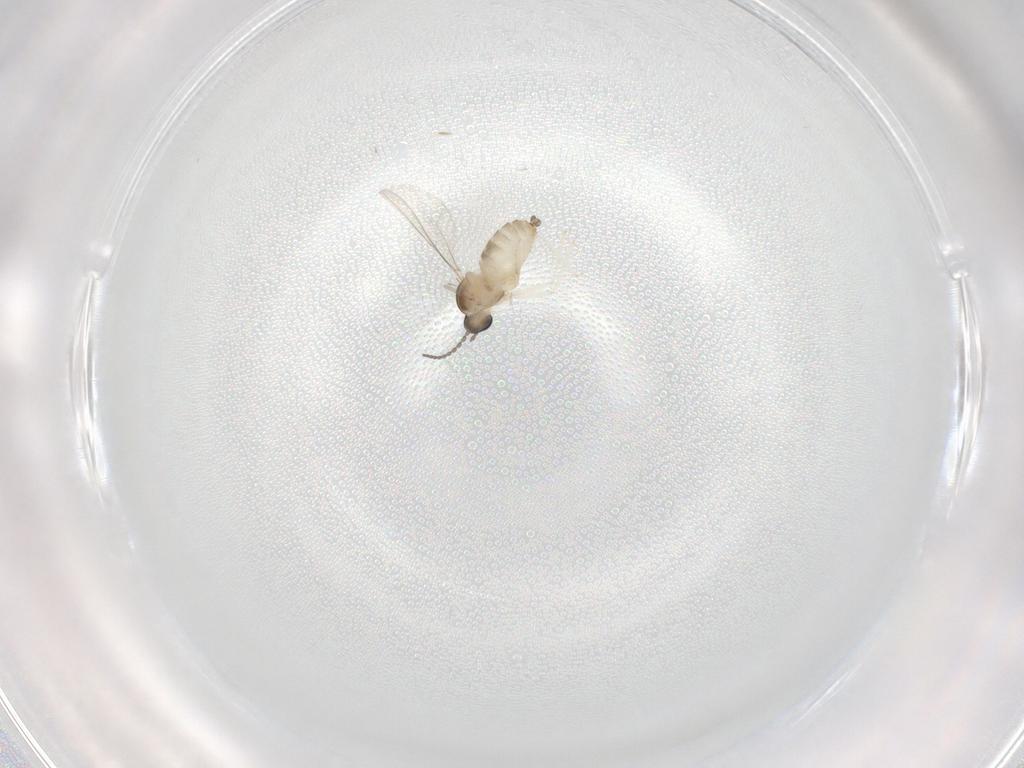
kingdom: Animalia
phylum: Arthropoda
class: Insecta
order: Diptera
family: Cecidomyiidae
